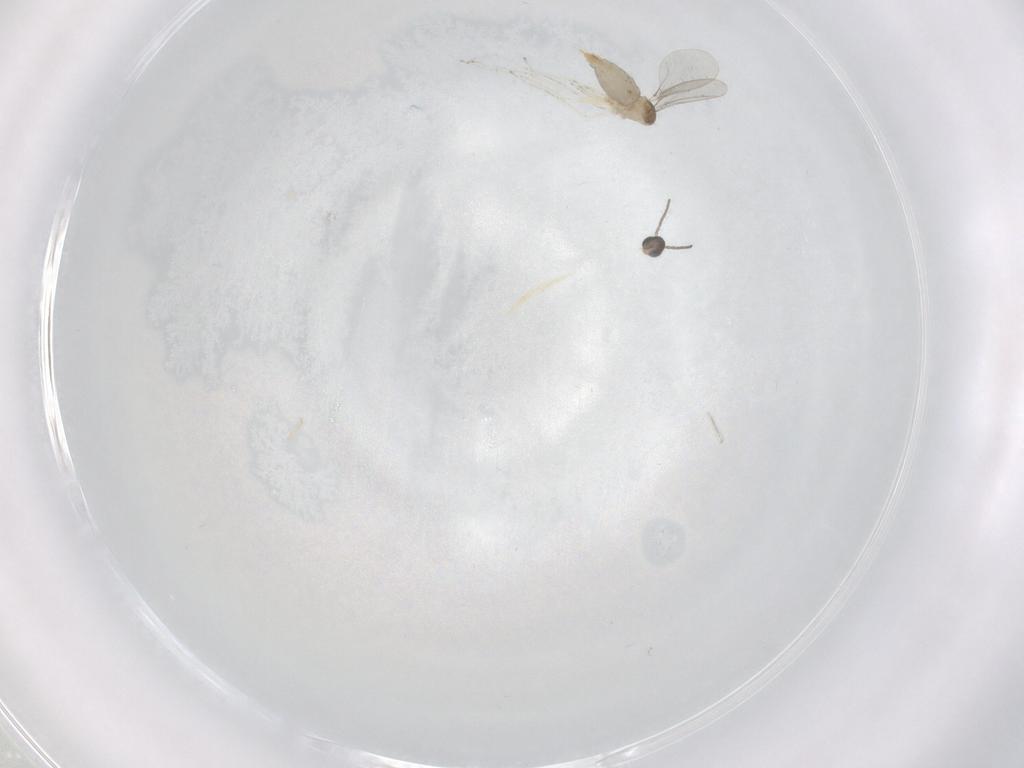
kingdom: Animalia
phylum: Arthropoda
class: Insecta
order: Diptera
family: Cecidomyiidae
